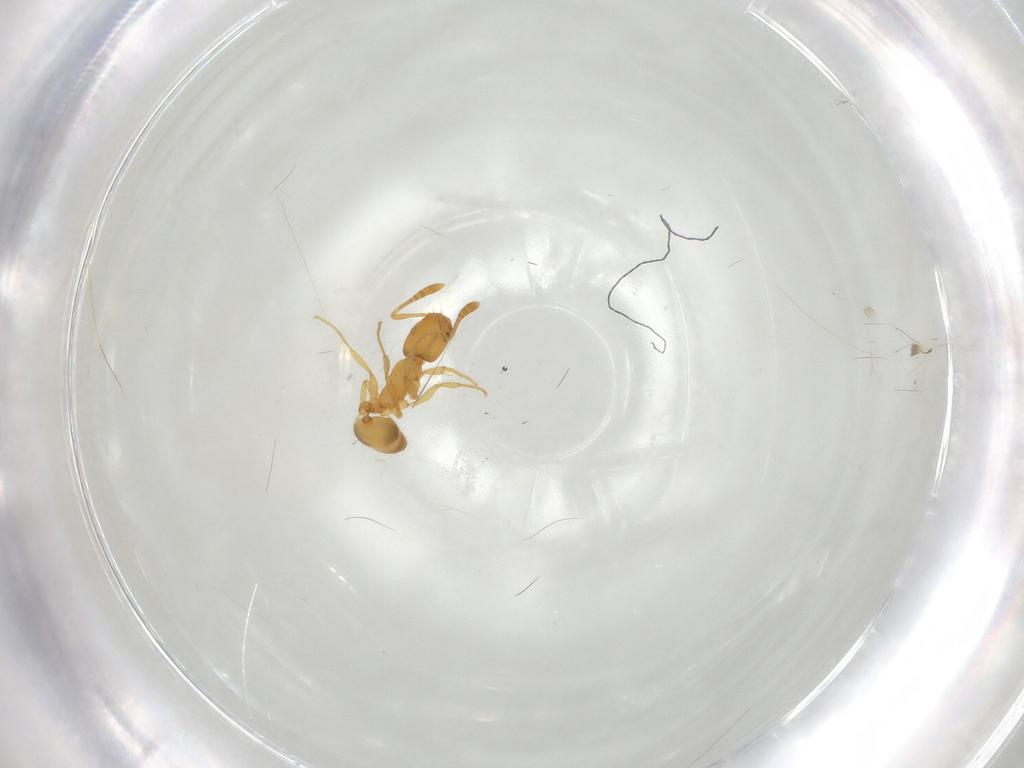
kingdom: Animalia
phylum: Arthropoda
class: Insecta
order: Hymenoptera
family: Formicidae
